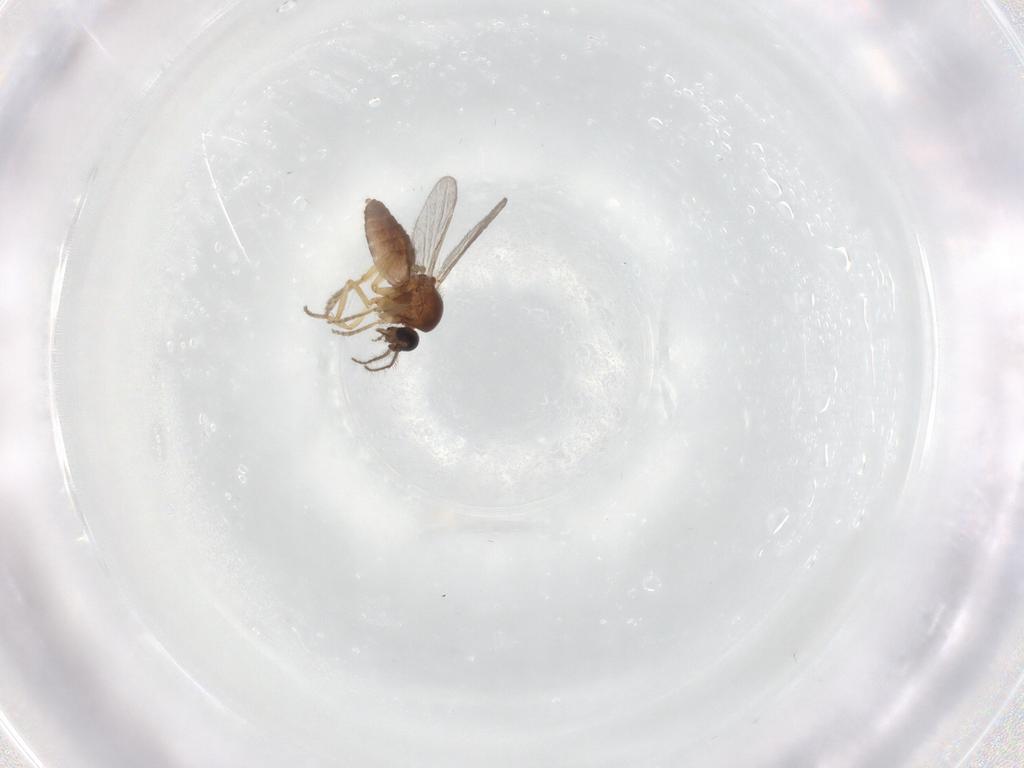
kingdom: Animalia
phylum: Arthropoda
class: Insecta
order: Diptera
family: Ceratopogonidae
